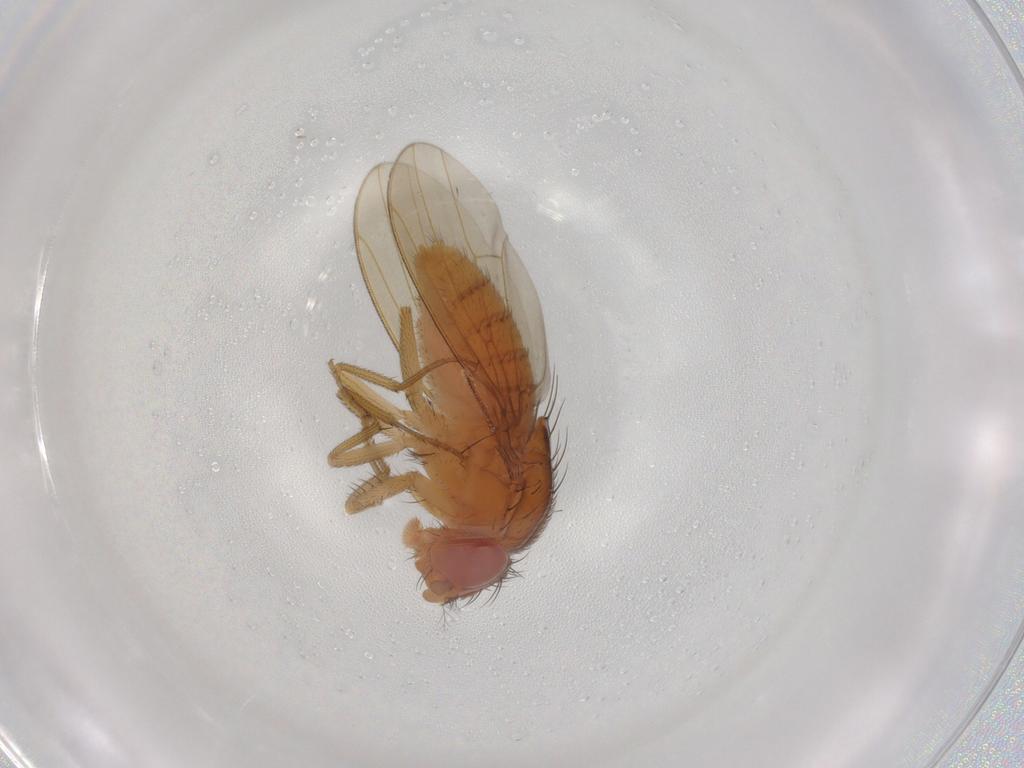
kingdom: Animalia
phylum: Arthropoda
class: Insecta
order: Diptera
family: Drosophilidae
